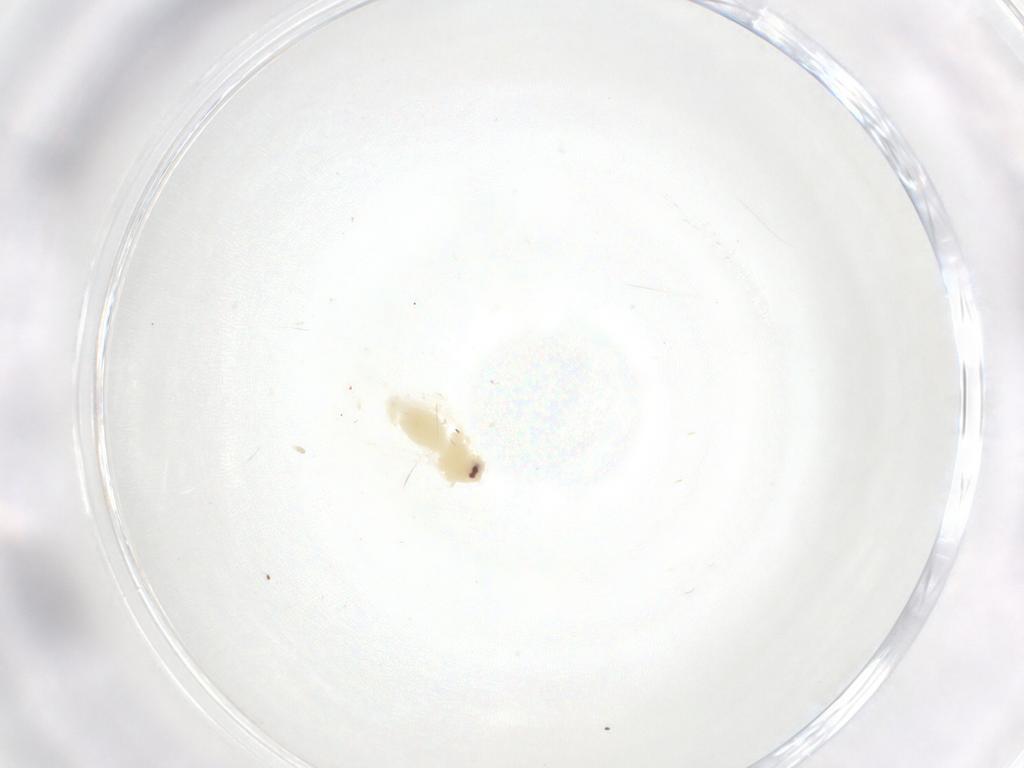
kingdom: Animalia
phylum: Arthropoda
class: Insecta
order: Hemiptera
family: Aleyrodidae
